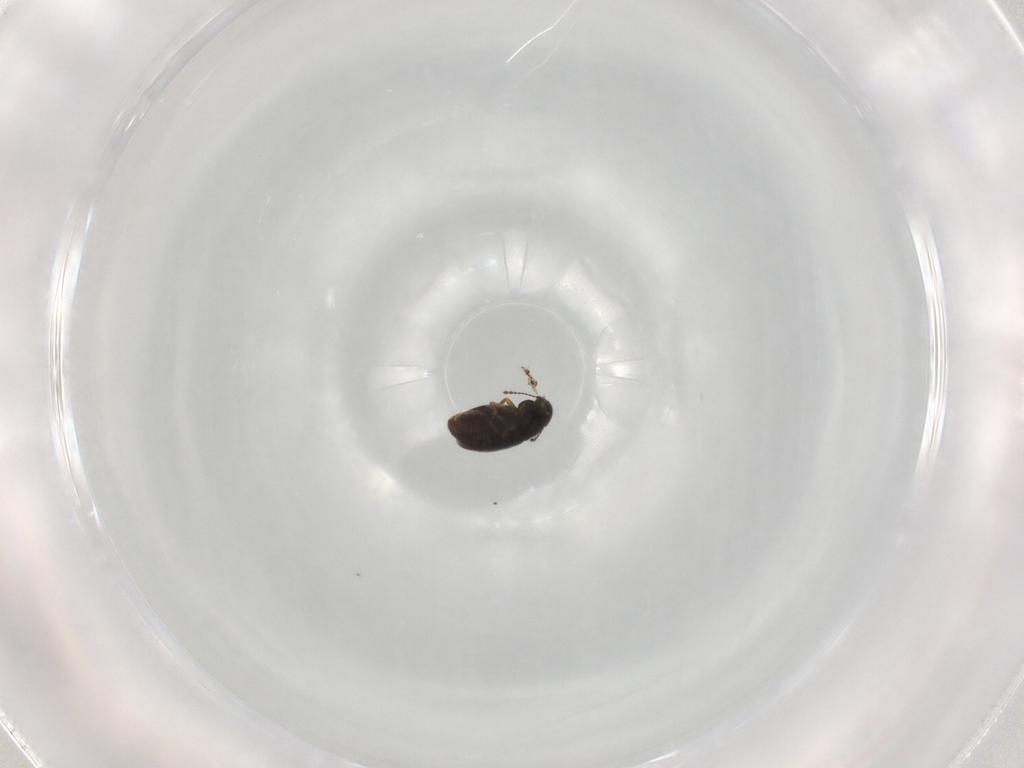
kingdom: Animalia
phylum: Arthropoda
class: Insecta
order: Coleoptera
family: Ptiliidae
